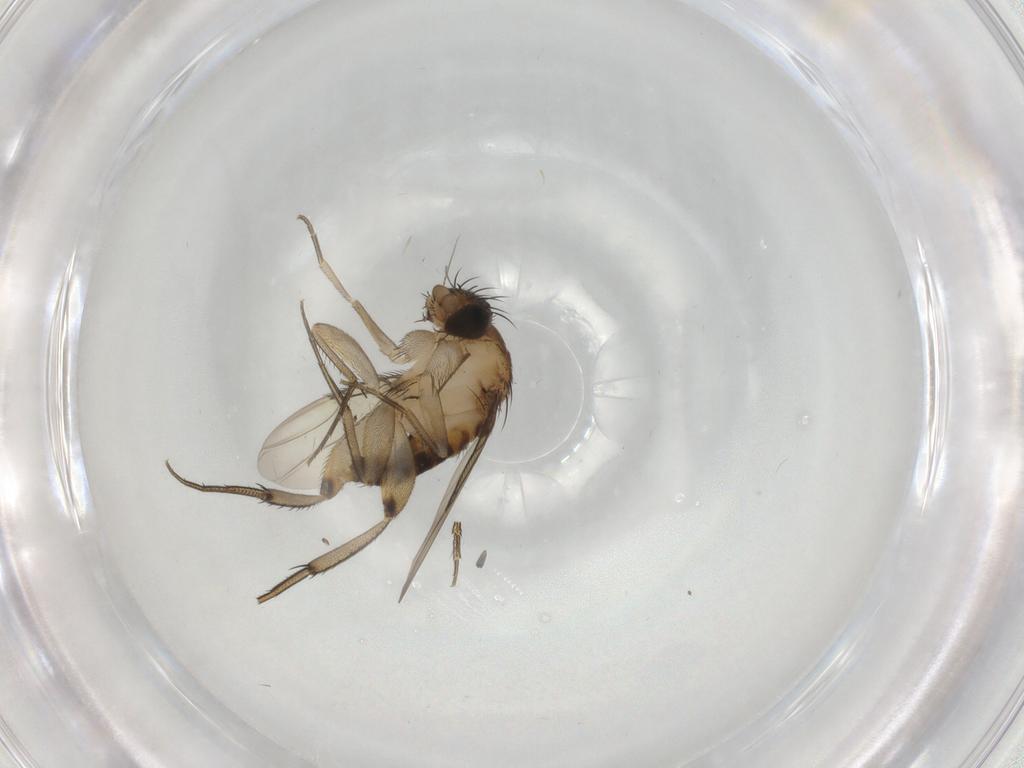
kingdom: Animalia
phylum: Arthropoda
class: Insecta
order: Diptera
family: Phoridae
